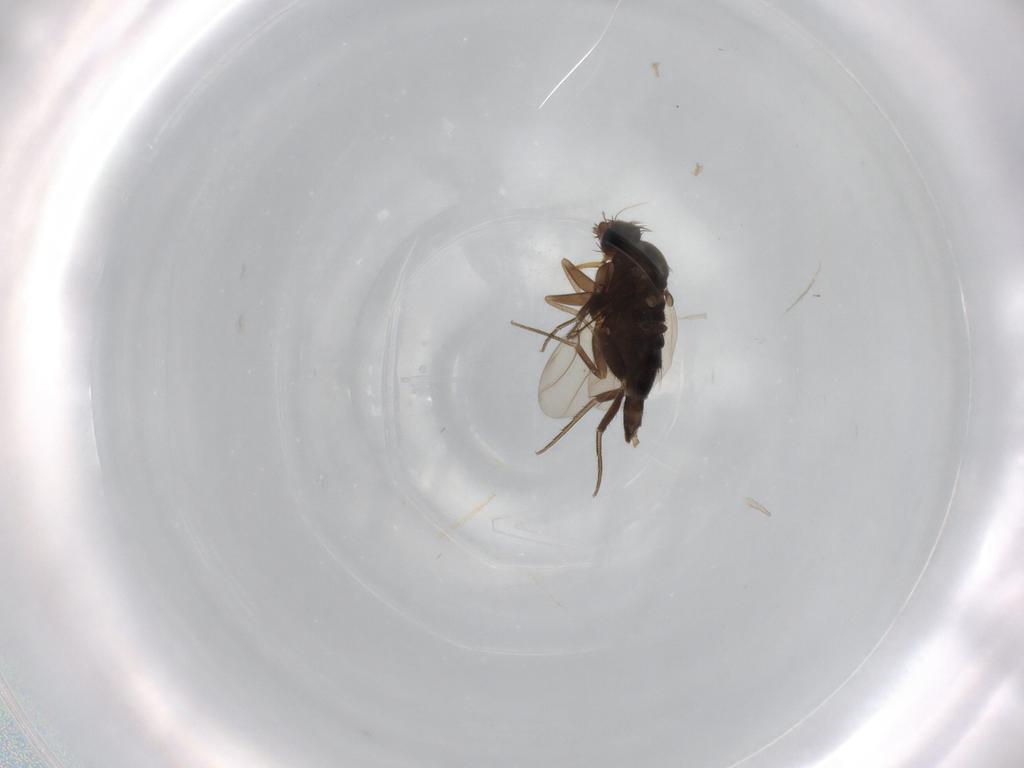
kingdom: Animalia
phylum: Arthropoda
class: Insecta
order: Diptera
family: Phoridae
